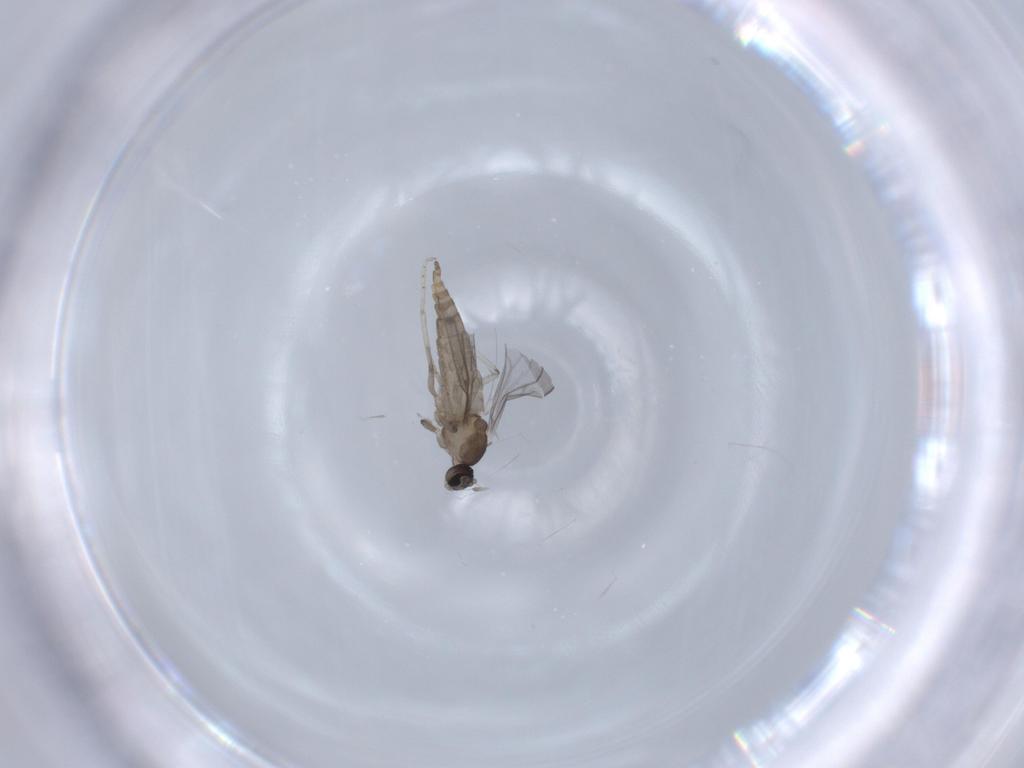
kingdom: Animalia
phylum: Arthropoda
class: Insecta
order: Diptera
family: Cecidomyiidae
